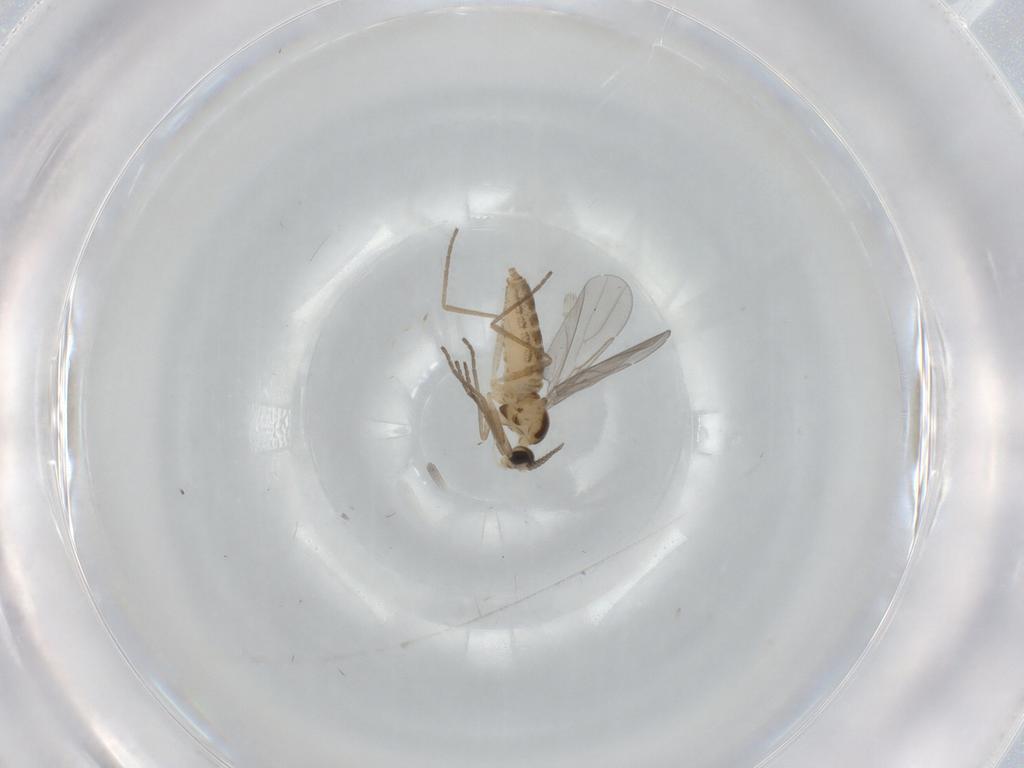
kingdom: Animalia
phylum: Arthropoda
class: Insecta
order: Diptera
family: Cecidomyiidae
